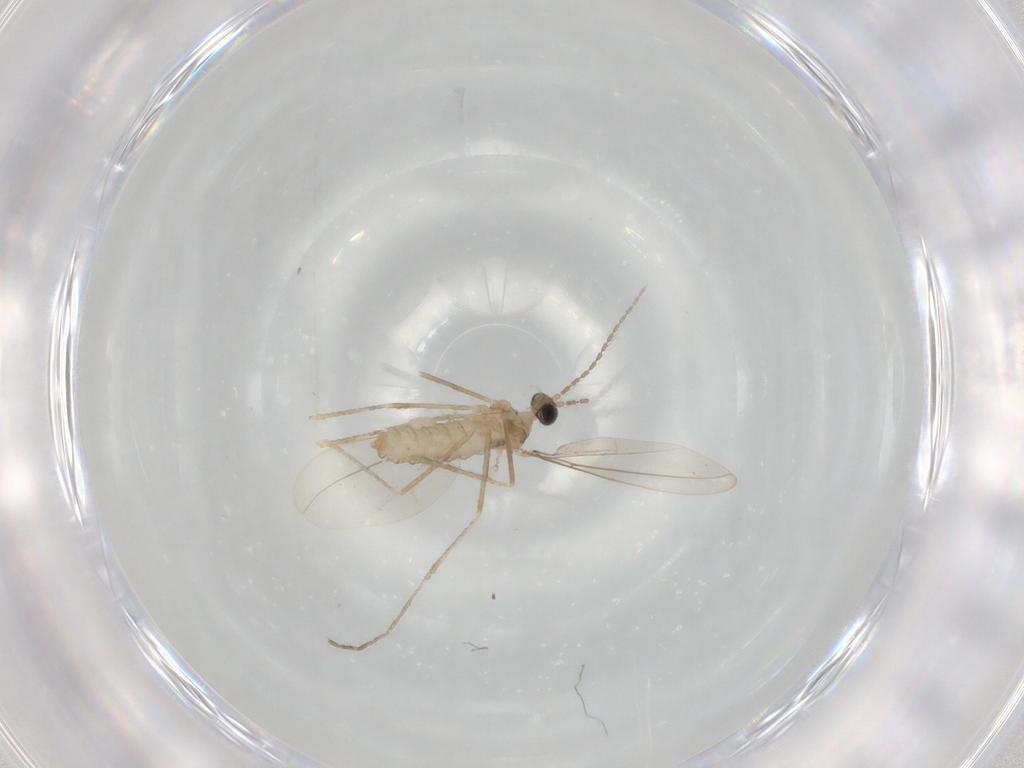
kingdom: Animalia
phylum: Arthropoda
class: Insecta
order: Diptera
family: Cecidomyiidae
